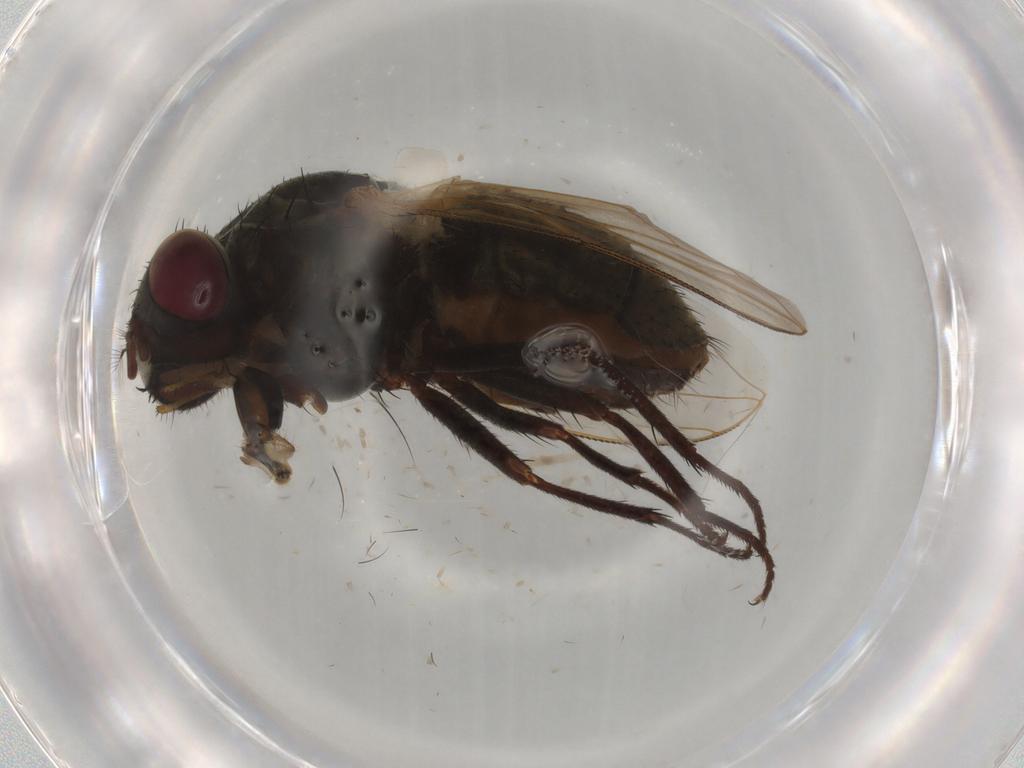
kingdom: Animalia
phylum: Arthropoda
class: Insecta
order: Diptera
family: Muscidae
